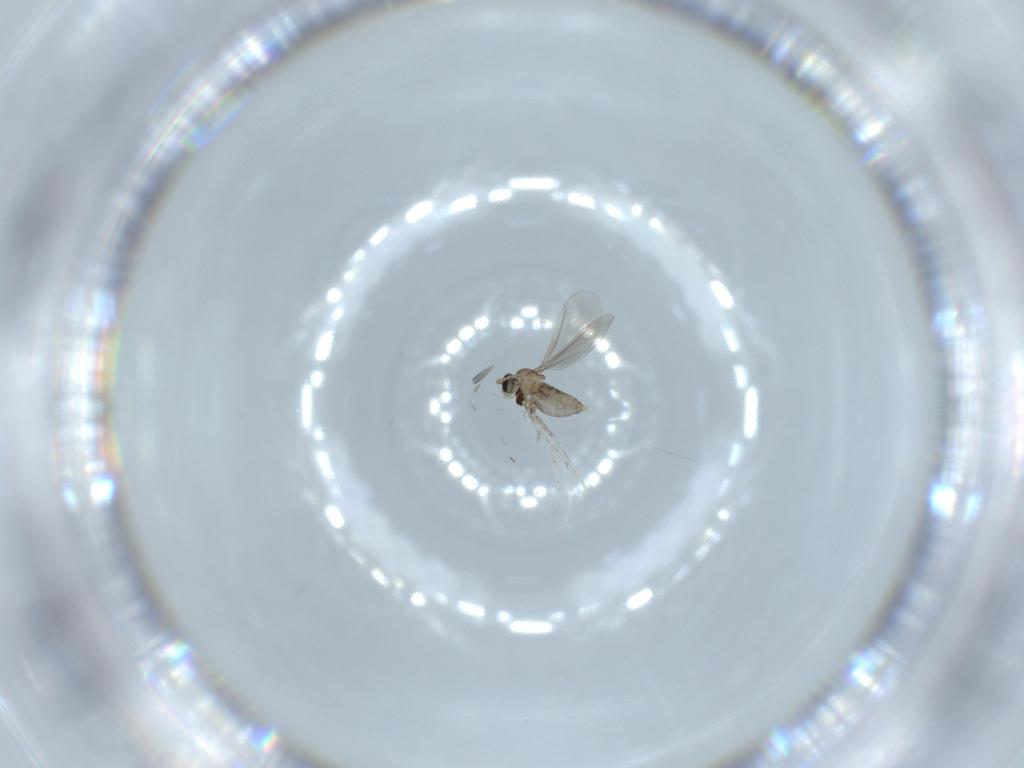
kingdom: Animalia
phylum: Arthropoda
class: Insecta
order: Diptera
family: Cecidomyiidae
